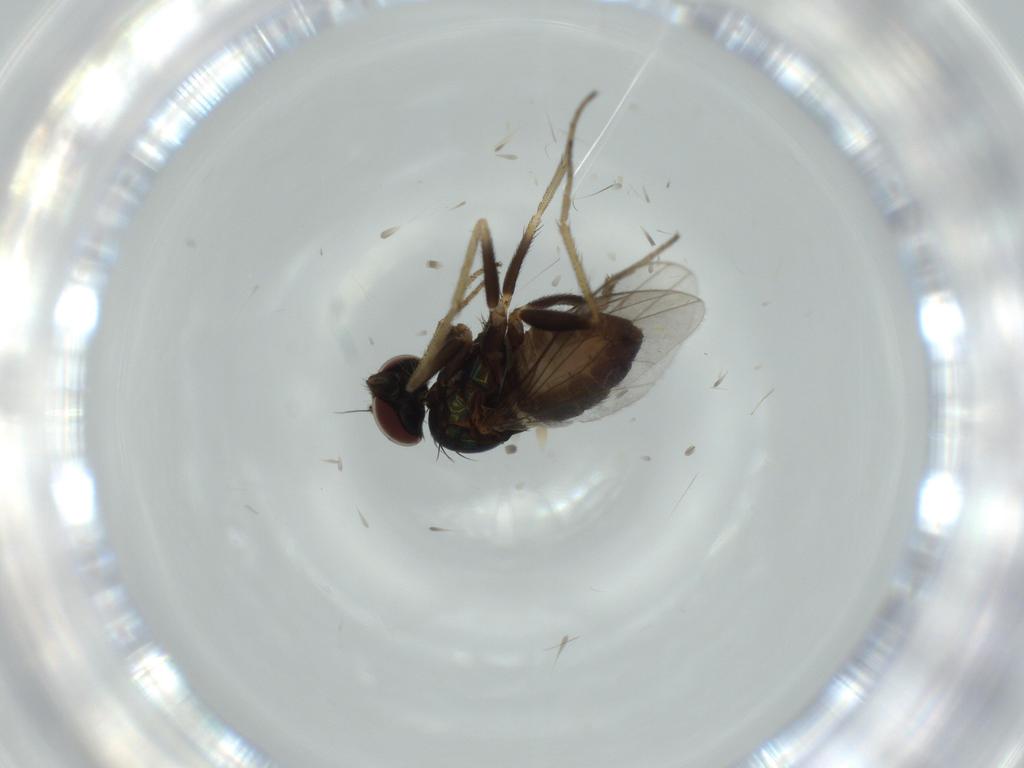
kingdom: Animalia
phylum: Arthropoda
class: Insecta
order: Diptera
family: Dolichopodidae
